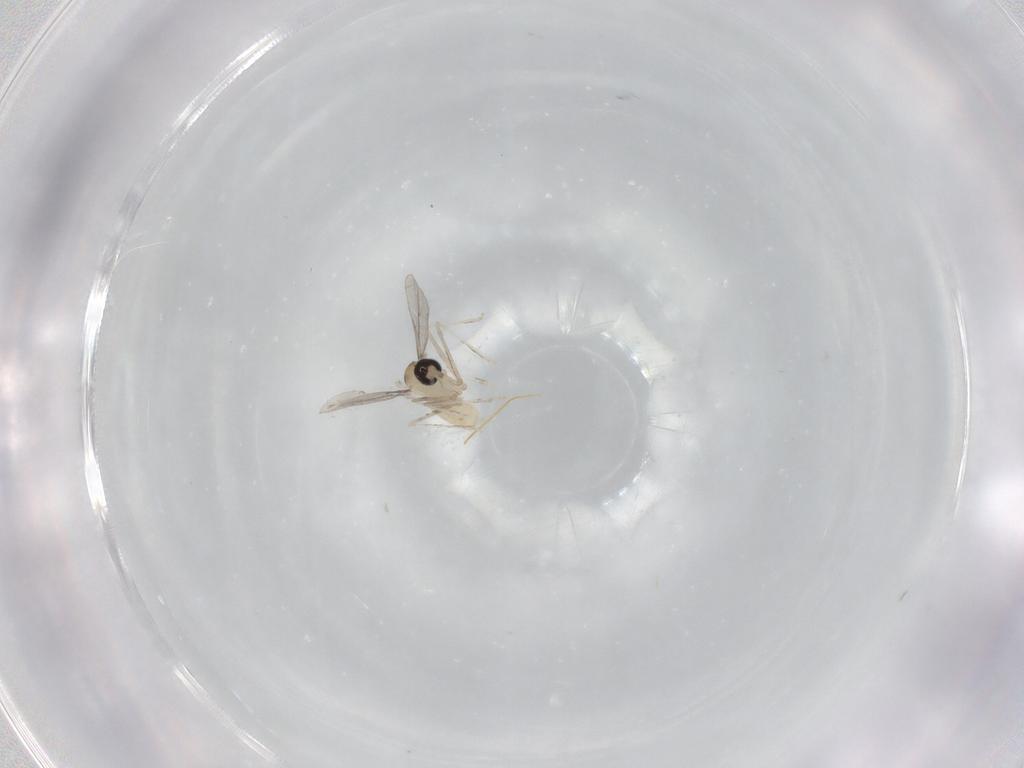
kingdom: Animalia
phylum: Arthropoda
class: Insecta
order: Diptera
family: Cecidomyiidae
